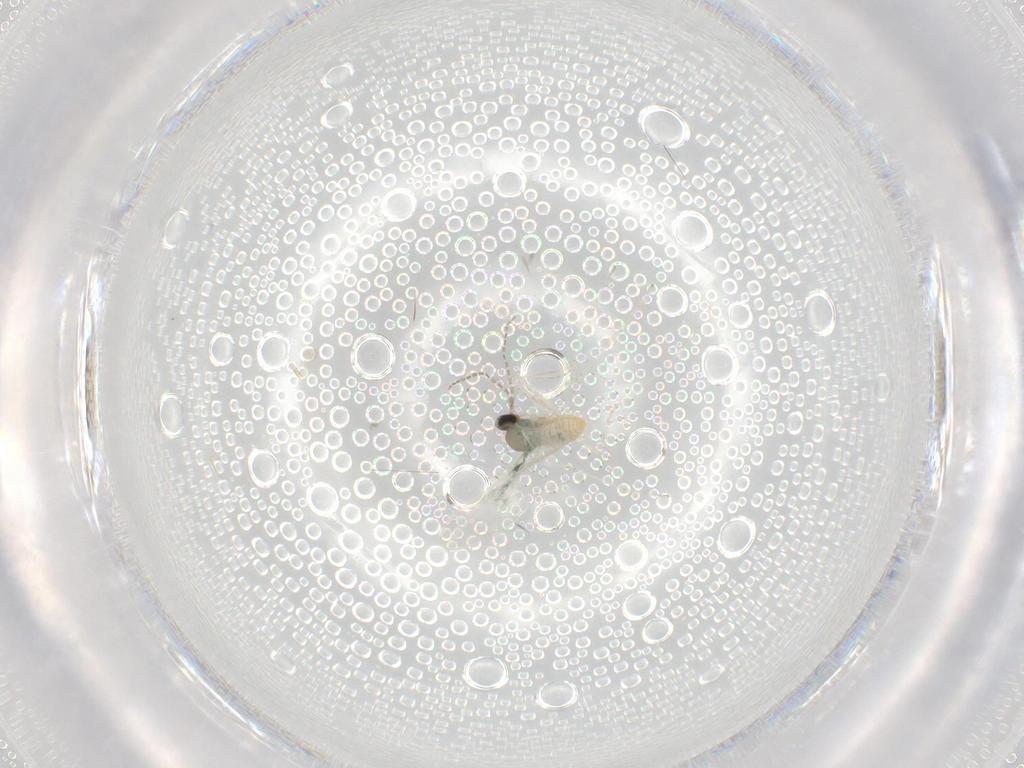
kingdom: Animalia
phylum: Arthropoda
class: Insecta
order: Diptera
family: Cecidomyiidae
